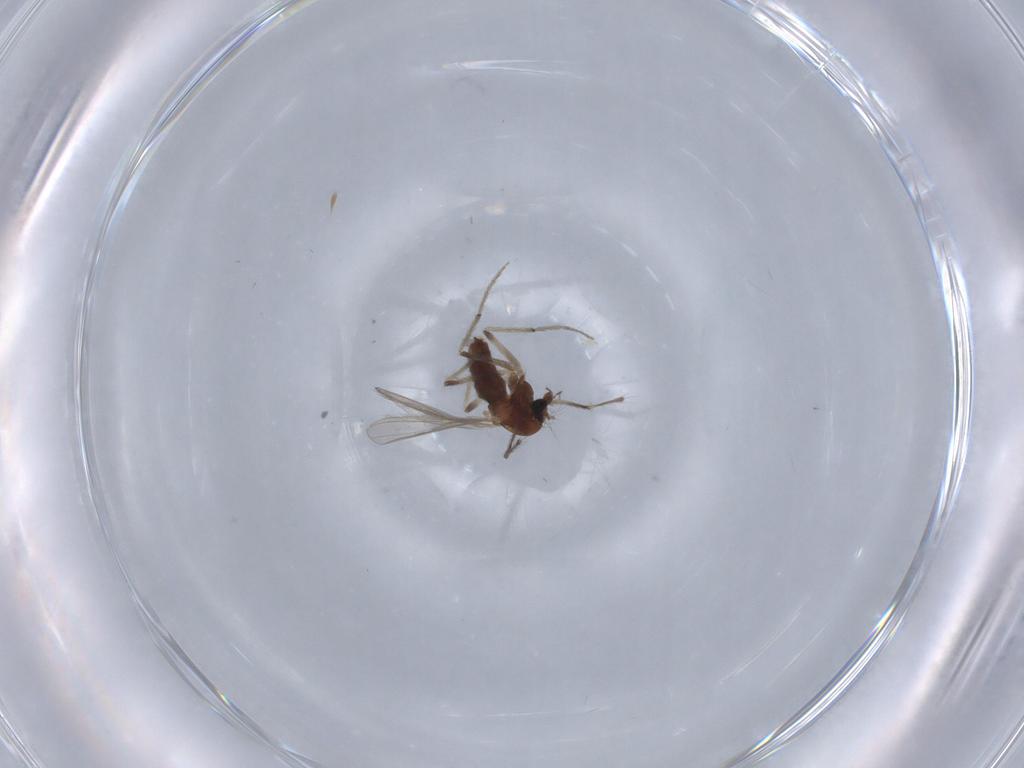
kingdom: Animalia
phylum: Arthropoda
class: Insecta
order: Diptera
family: Chironomidae
